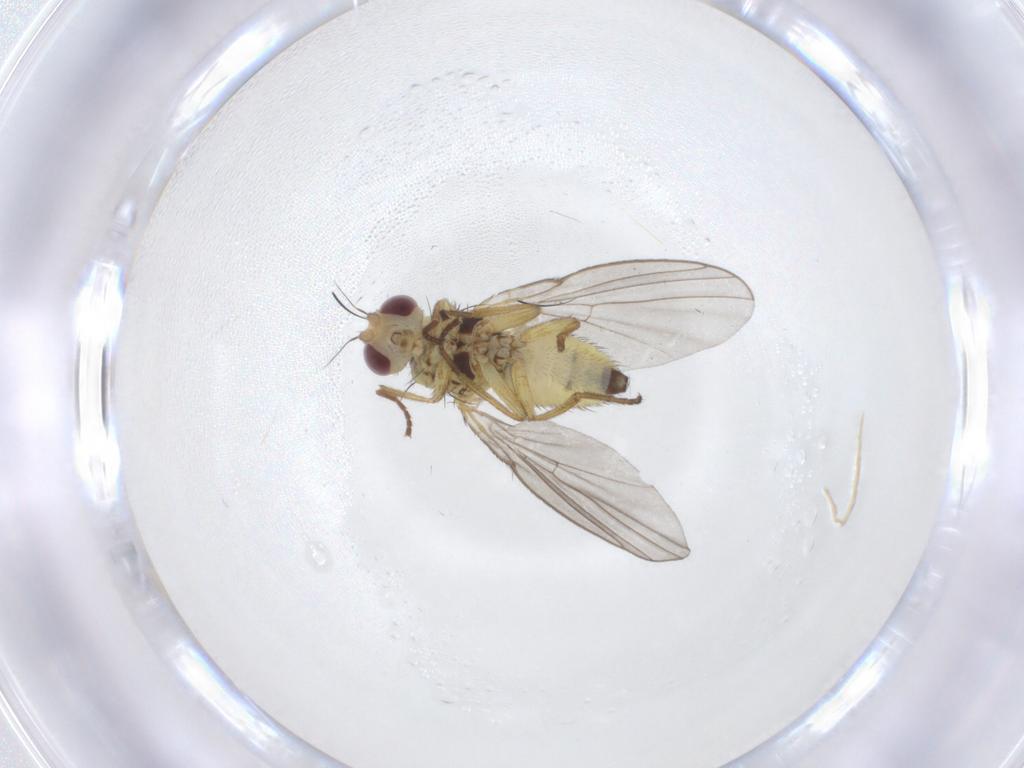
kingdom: Animalia
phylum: Arthropoda
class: Insecta
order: Diptera
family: Agromyzidae
